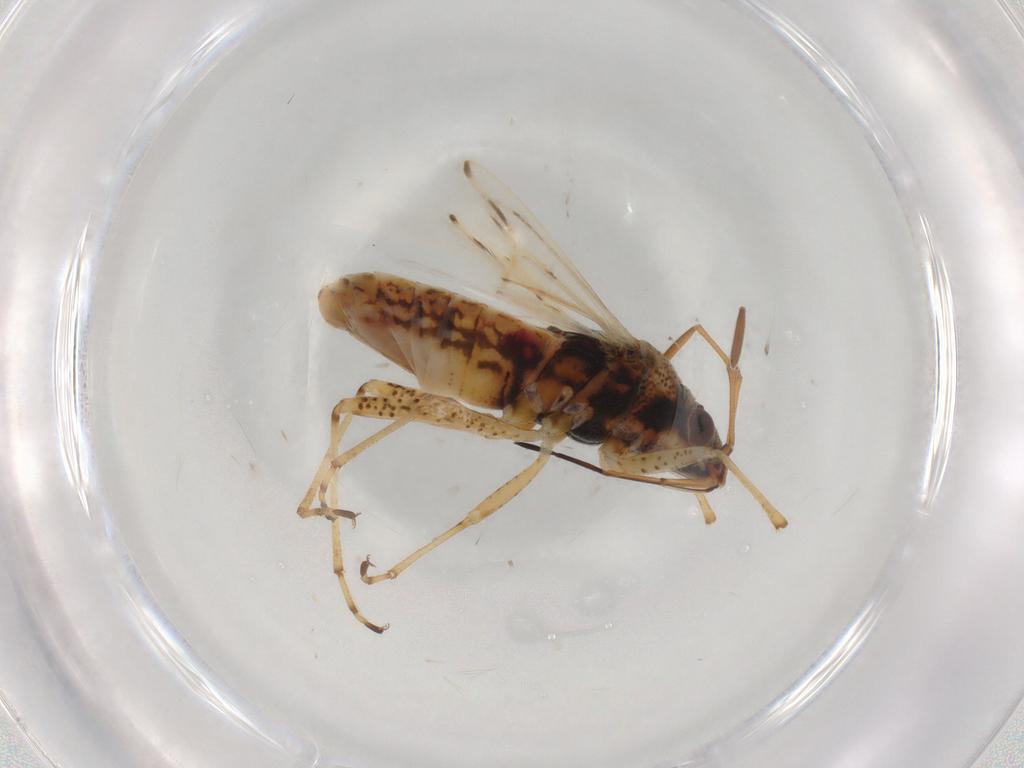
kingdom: Animalia
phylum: Arthropoda
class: Insecta
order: Hemiptera
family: Lygaeidae
